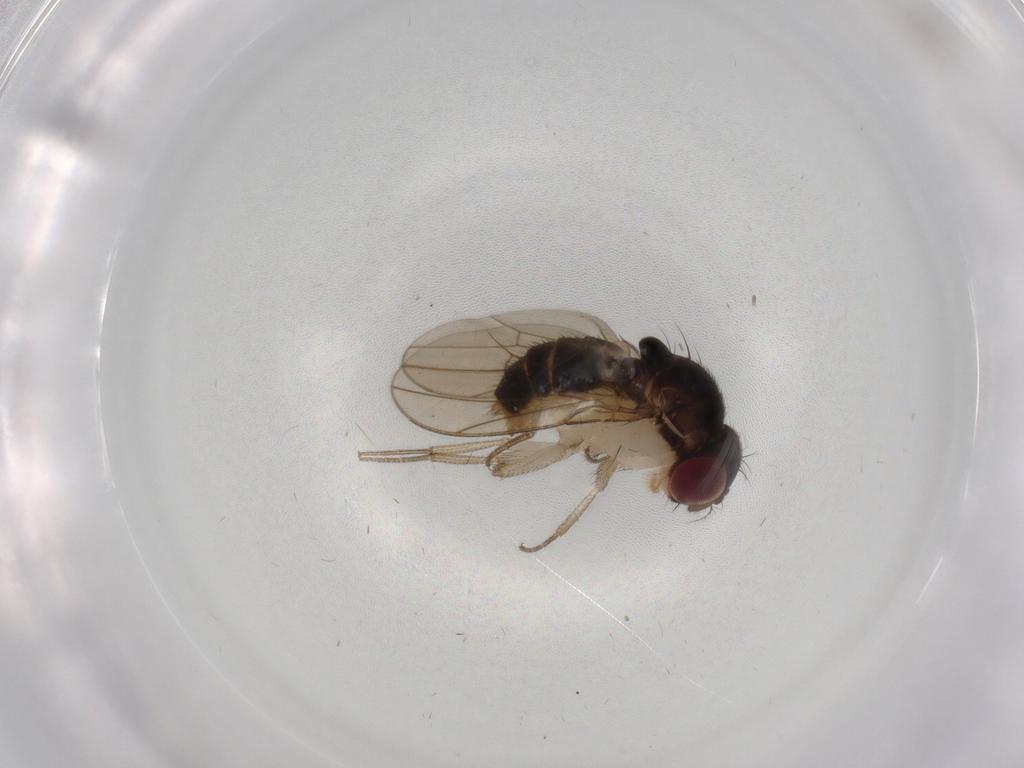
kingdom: Animalia
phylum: Arthropoda
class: Insecta
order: Diptera
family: Drosophilidae
